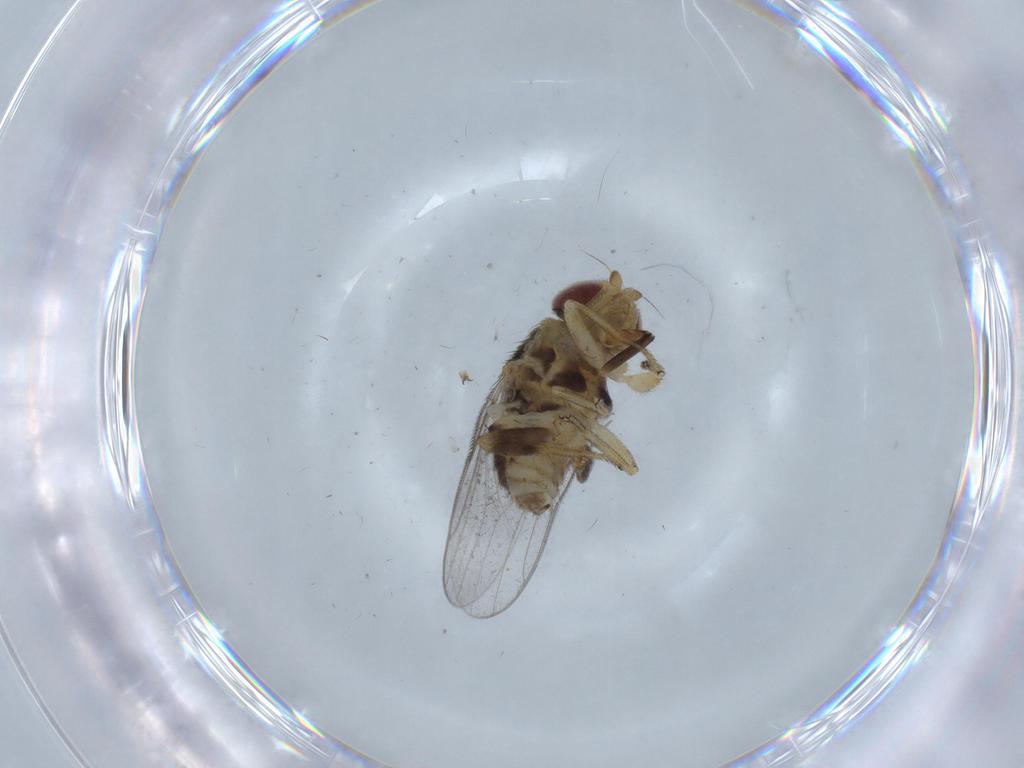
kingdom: Animalia
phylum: Arthropoda
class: Insecta
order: Diptera
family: Chloropidae
